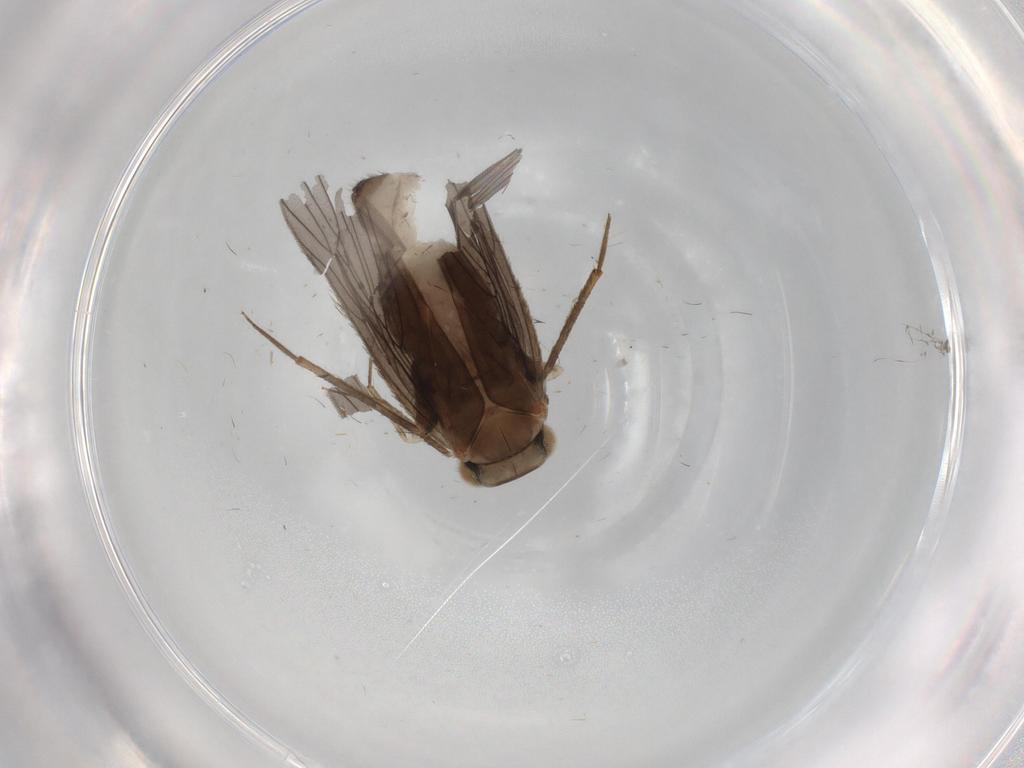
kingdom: Animalia
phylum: Arthropoda
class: Insecta
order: Psocodea
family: Lepidopsocidae
